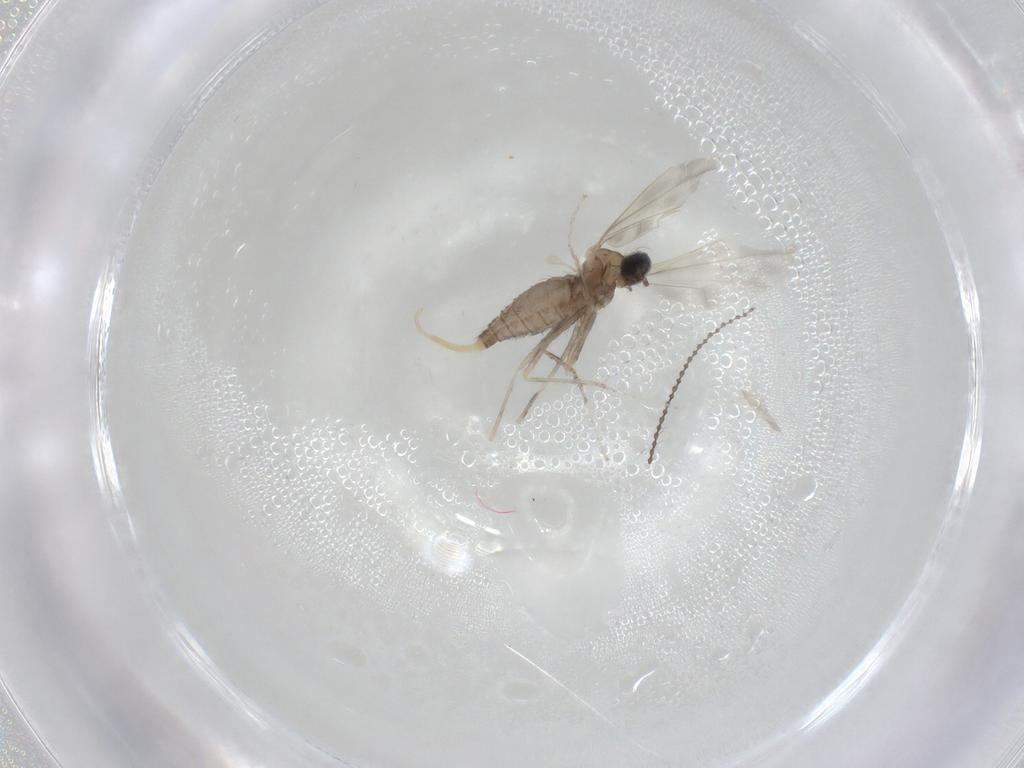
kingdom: Animalia
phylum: Arthropoda
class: Insecta
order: Diptera
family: Cecidomyiidae
